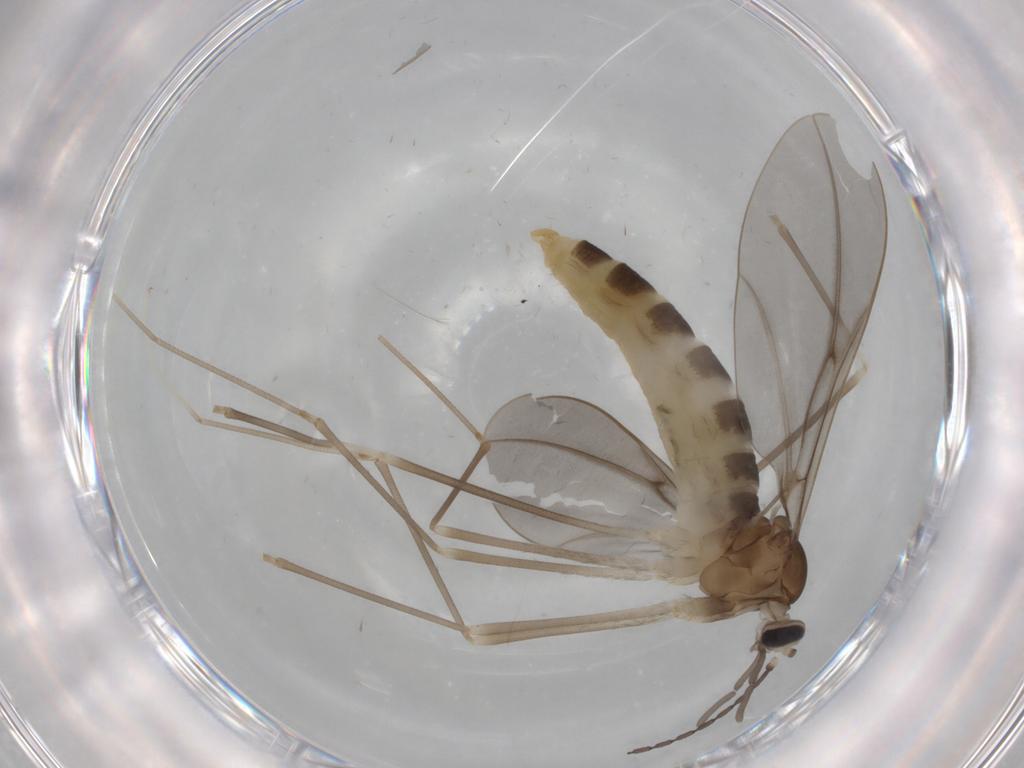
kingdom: Animalia
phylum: Arthropoda
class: Insecta
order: Diptera
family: Cecidomyiidae
